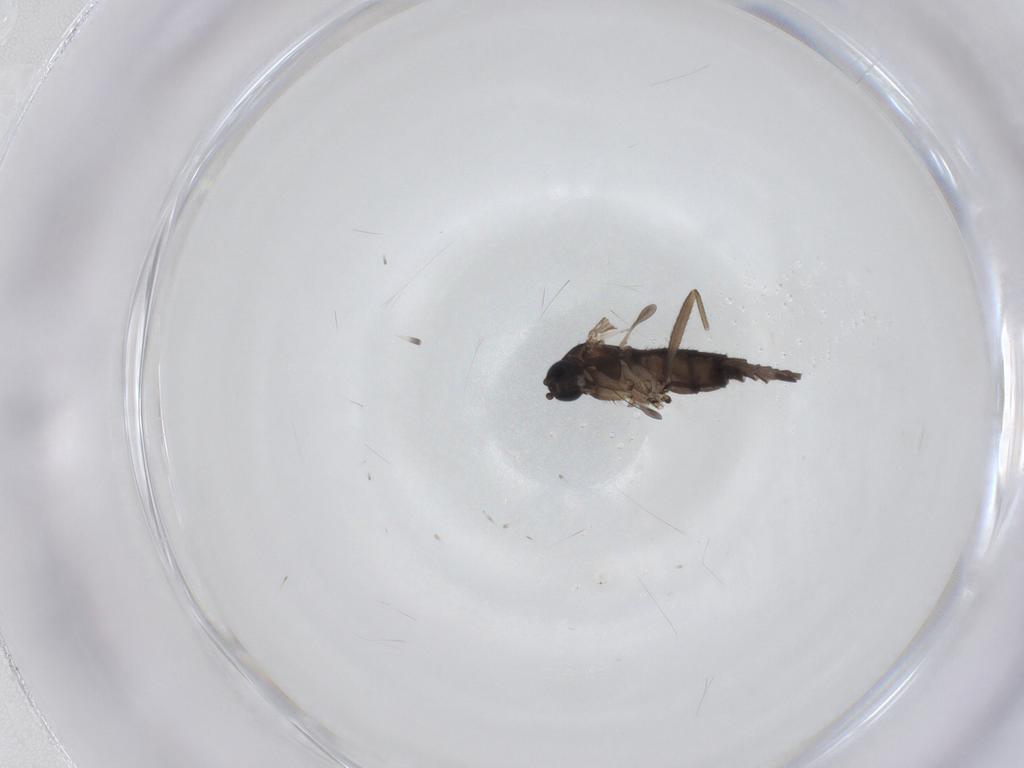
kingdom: Animalia
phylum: Arthropoda
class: Insecta
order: Diptera
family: Sciaridae
